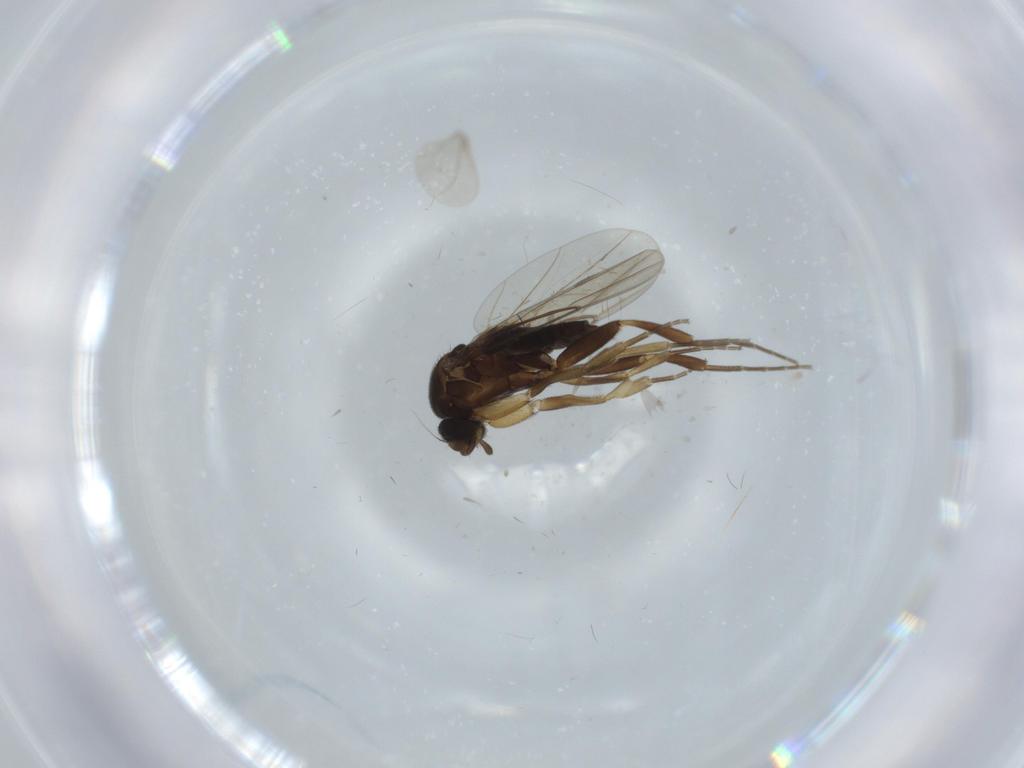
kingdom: Animalia
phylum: Arthropoda
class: Insecta
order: Diptera
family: Phoridae
